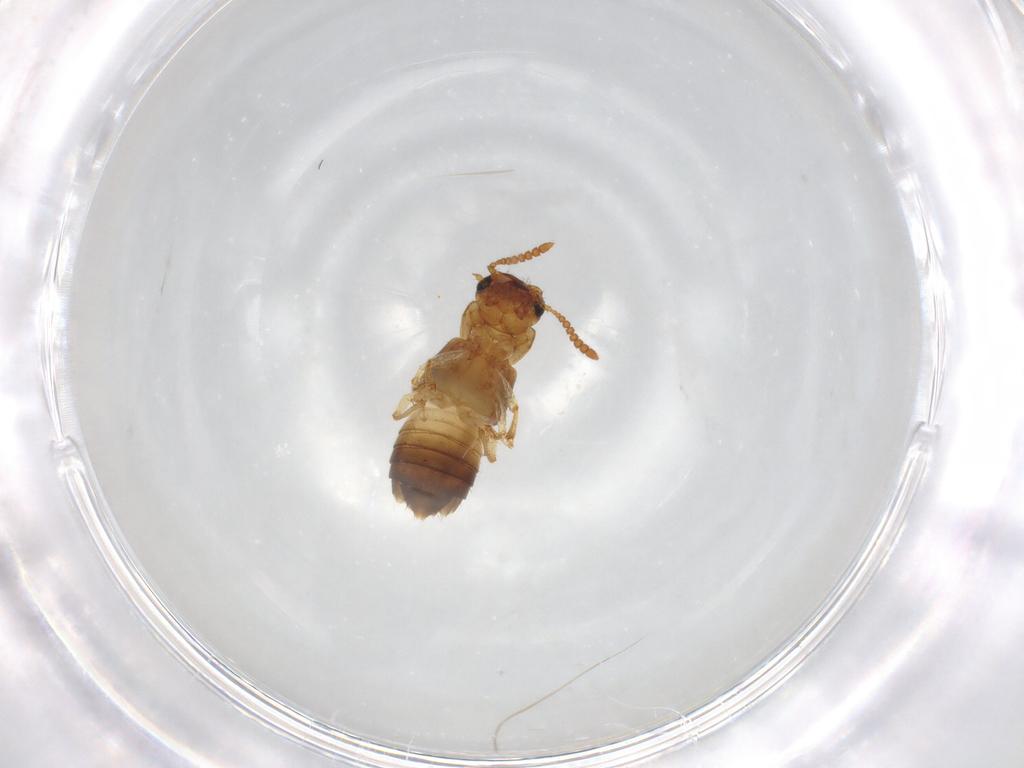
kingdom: Animalia
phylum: Arthropoda
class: Insecta
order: Coleoptera
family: Staphylinidae
